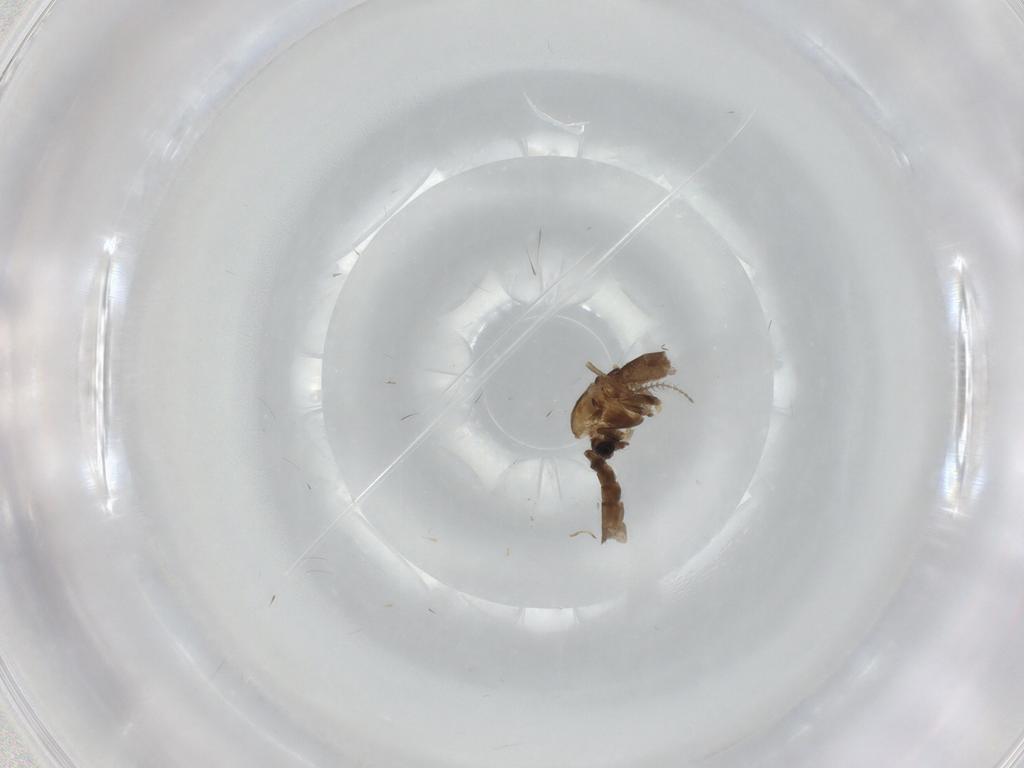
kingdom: Animalia
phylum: Arthropoda
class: Insecta
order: Diptera
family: Chironomidae
